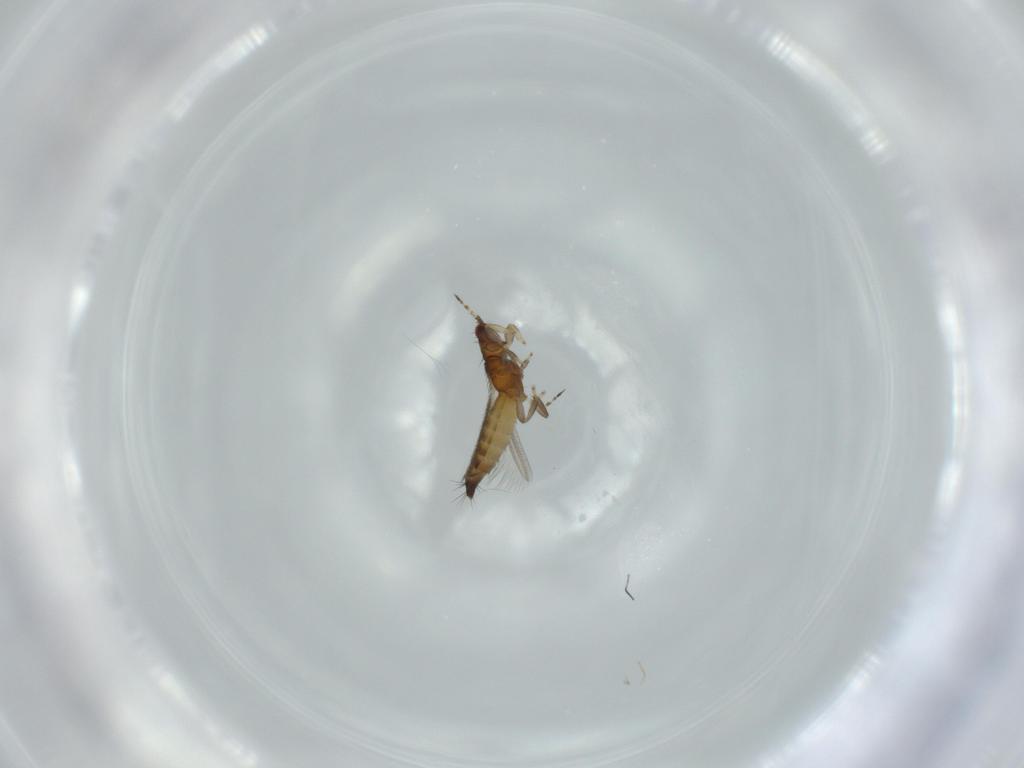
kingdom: Animalia
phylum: Arthropoda
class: Insecta
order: Thysanoptera
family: Thripidae
